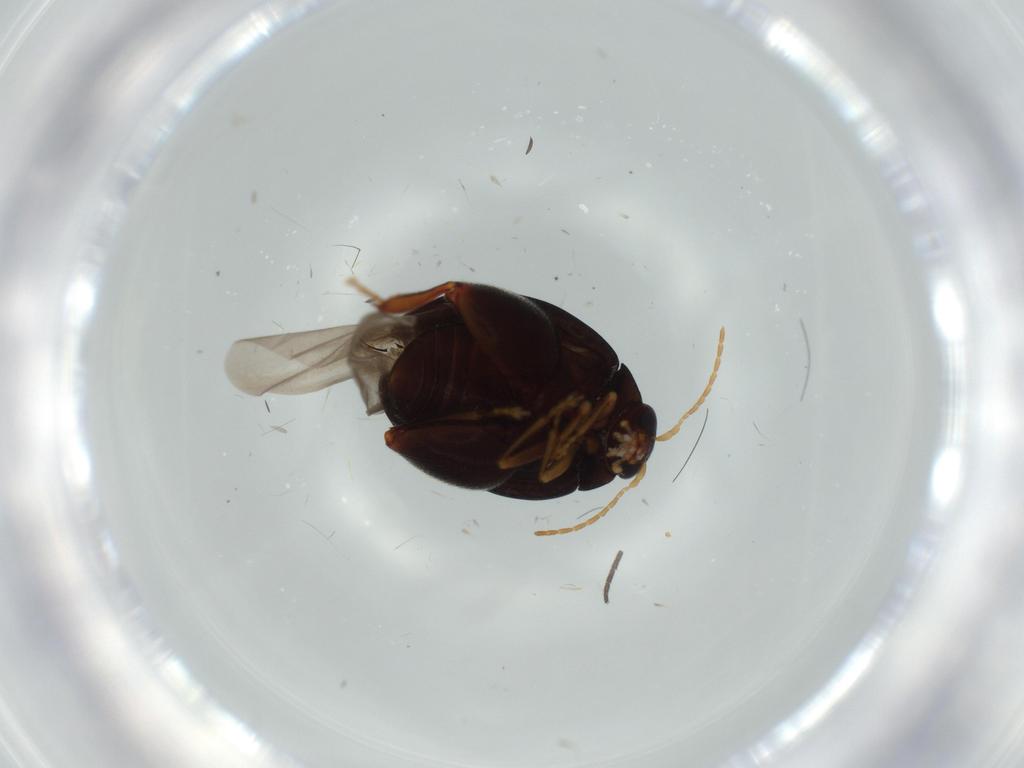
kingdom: Animalia
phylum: Arthropoda
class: Insecta
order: Coleoptera
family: Chrysomelidae
